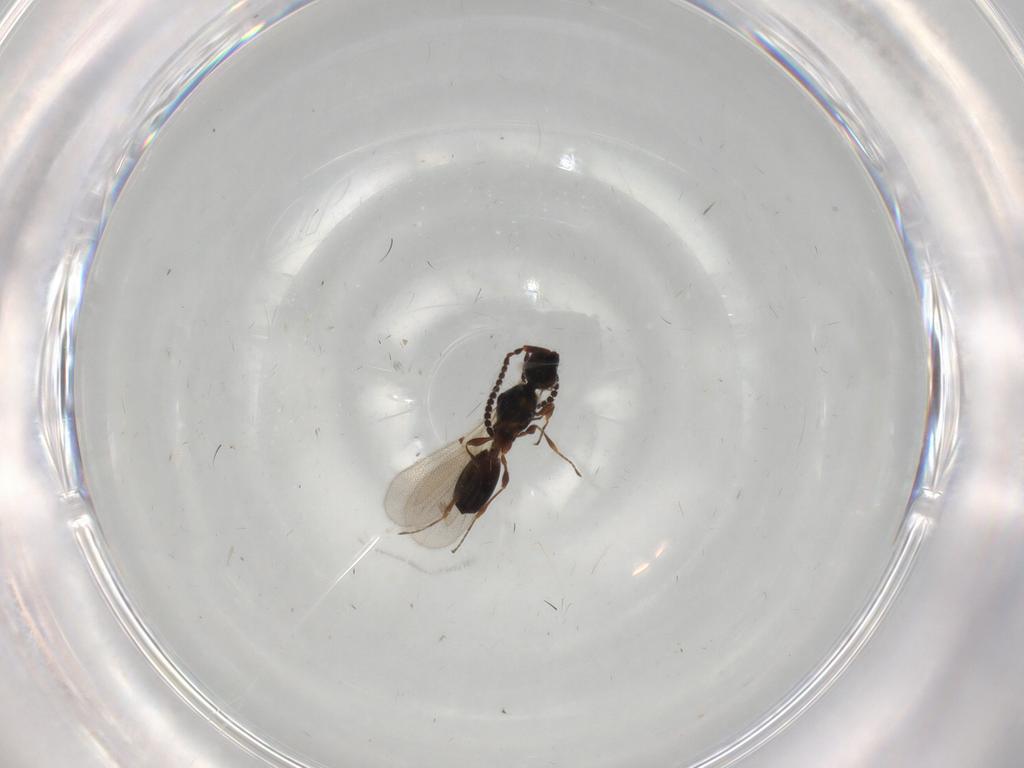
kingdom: Animalia
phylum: Arthropoda
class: Insecta
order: Hymenoptera
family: Diapriidae
